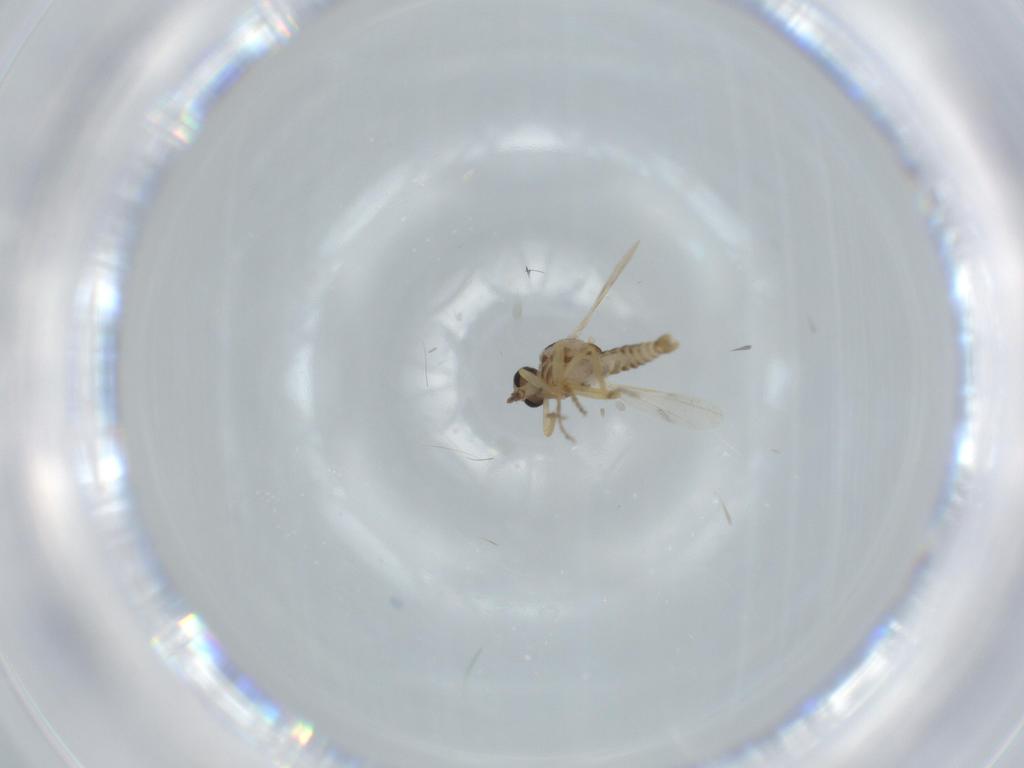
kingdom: Animalia
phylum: Arthropoda
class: Insecta
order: Diptera
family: Ceratopogonidae
